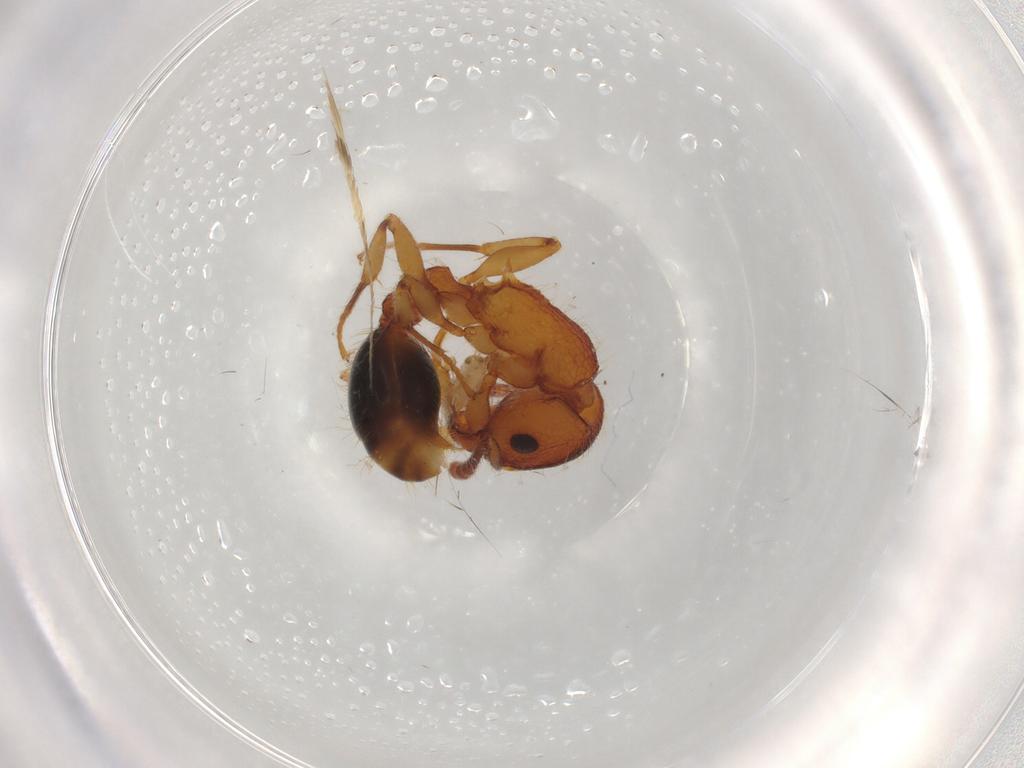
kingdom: Animalia
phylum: Arthropoda
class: Insecta
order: Hymenoptera
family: Aphelinidae
